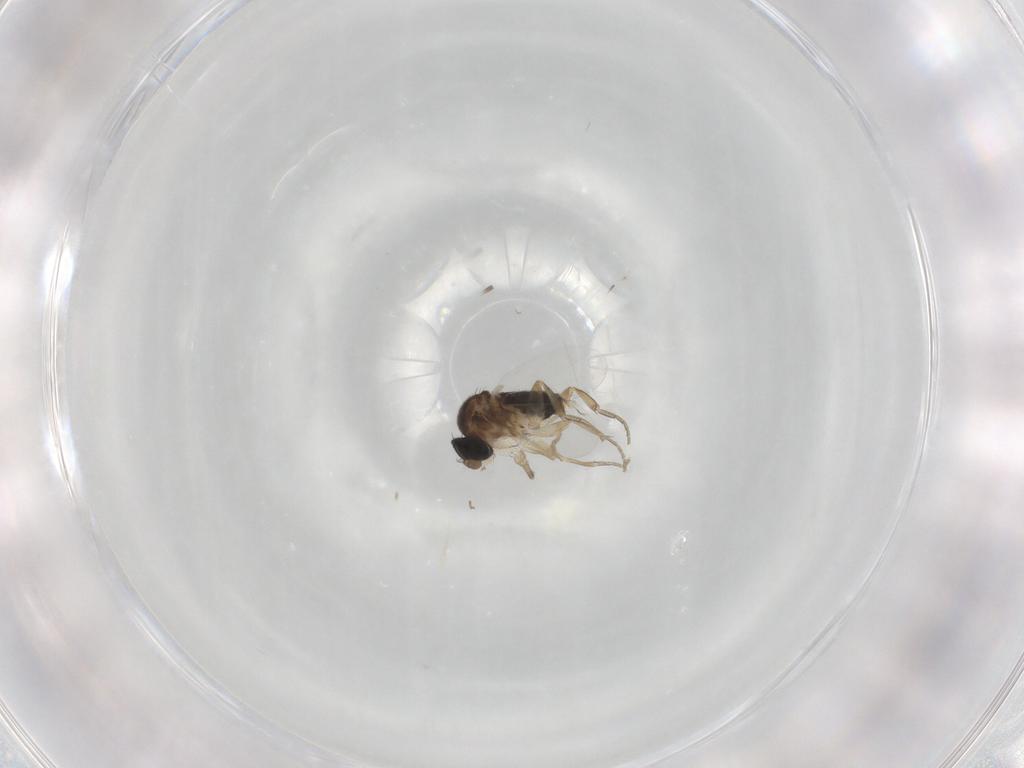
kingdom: Animalia
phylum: Arthropoda
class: Insecta
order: Diptera
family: Phoridae
